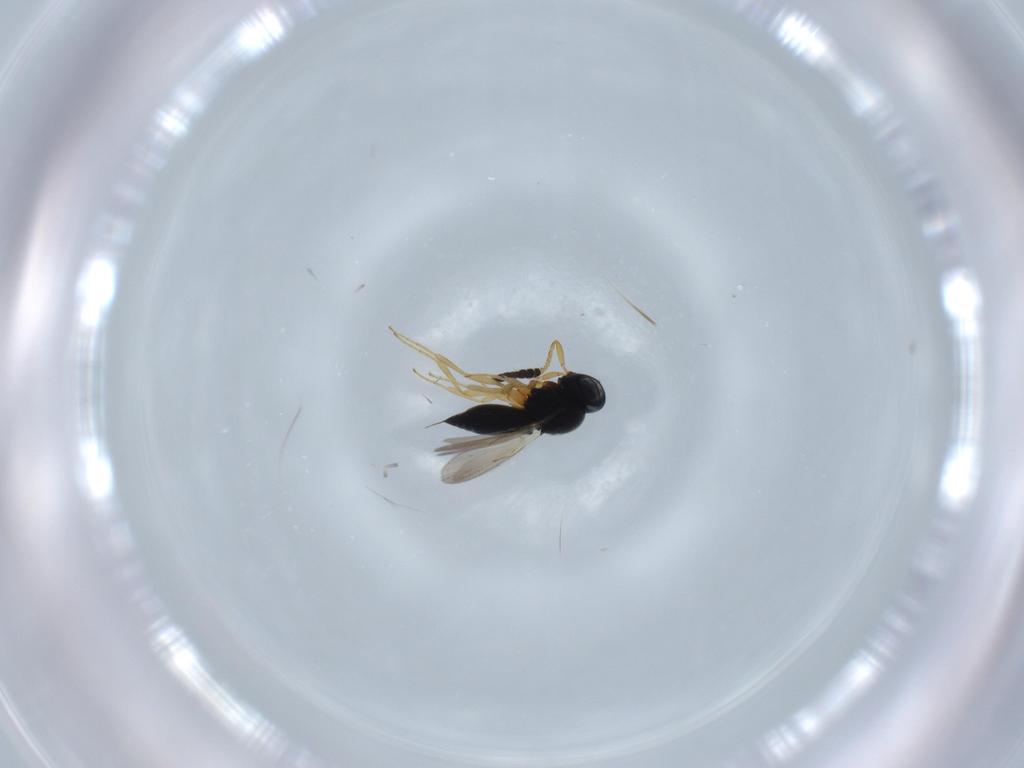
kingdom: Animalia
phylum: Arthropoda
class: Insecta
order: Hymenoptera
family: Scelionidae
